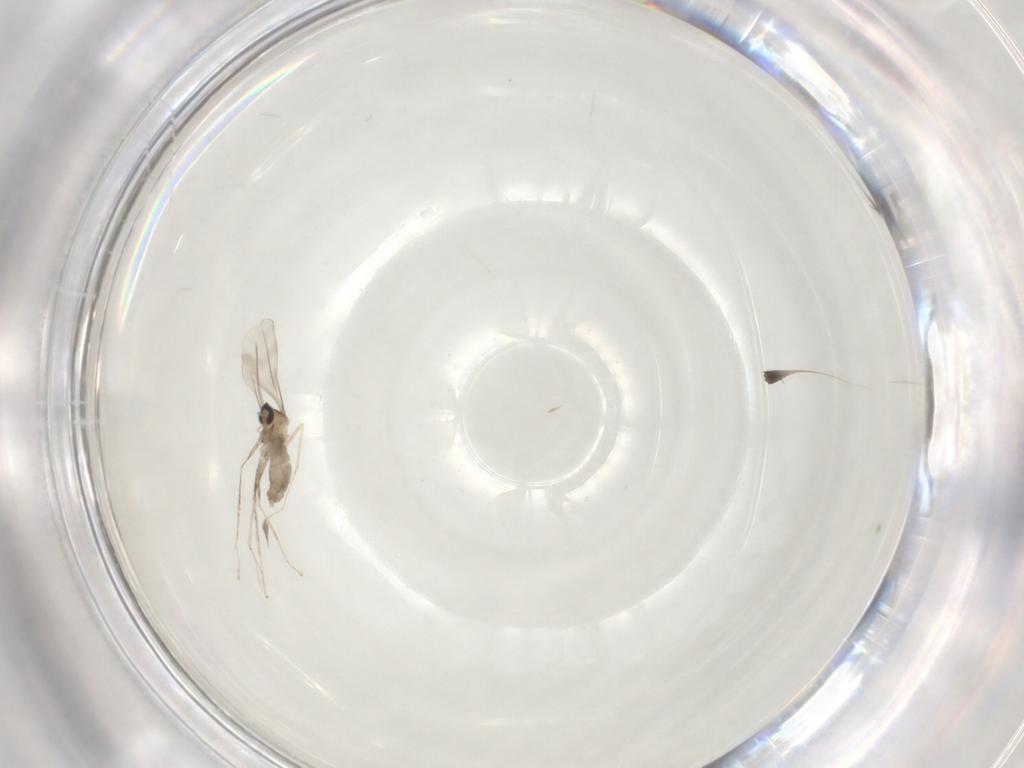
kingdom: Animalia
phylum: Arthropoda
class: Insecta
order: Diptera
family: Cecidomyiidae
